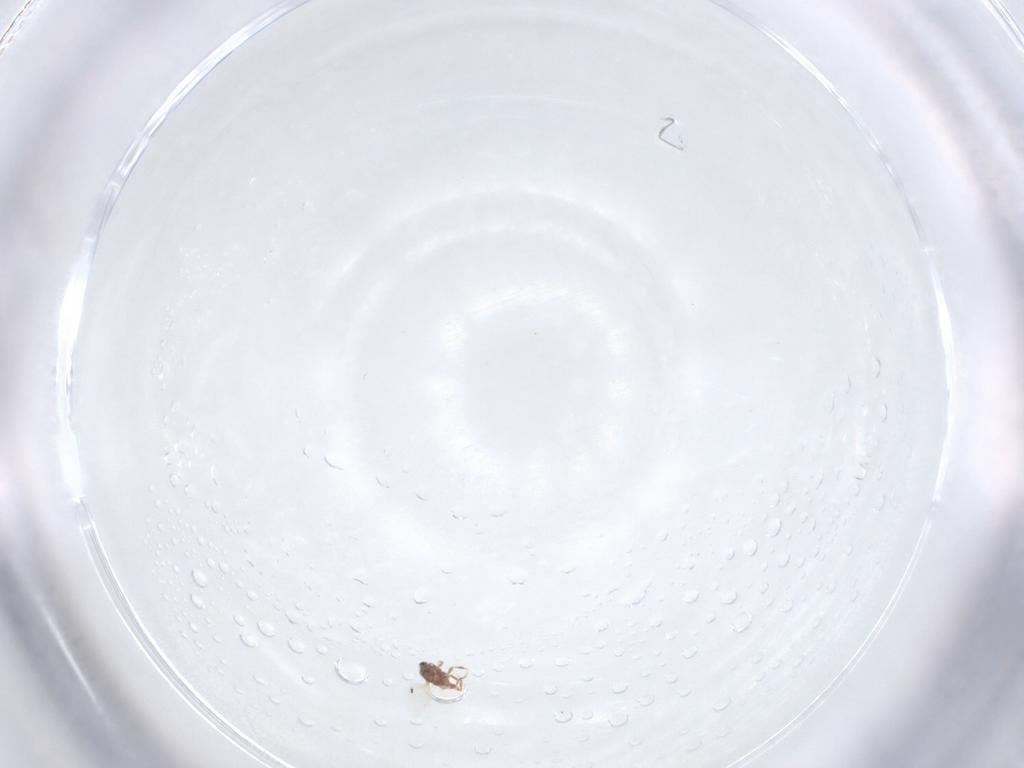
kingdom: Animalia
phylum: Arthropoda
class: Insecta
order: Hemiptera
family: Diaspididae
